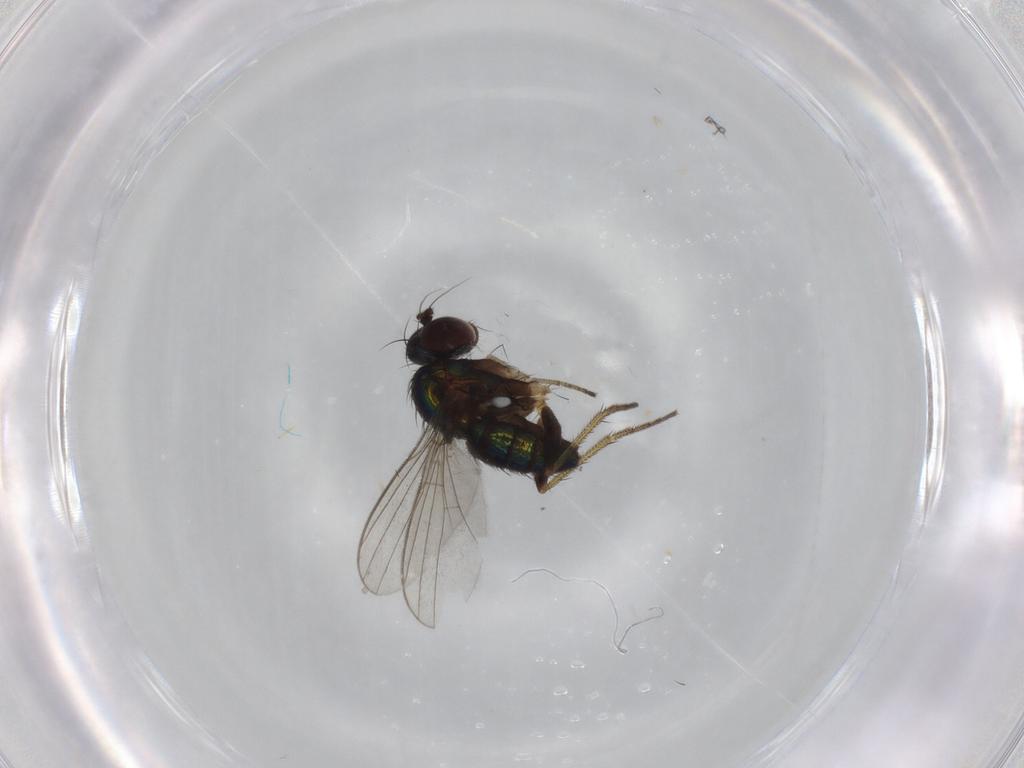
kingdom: Animalia
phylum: Arthropoda
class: Insecta
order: Diptera
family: Dolichopodidae
